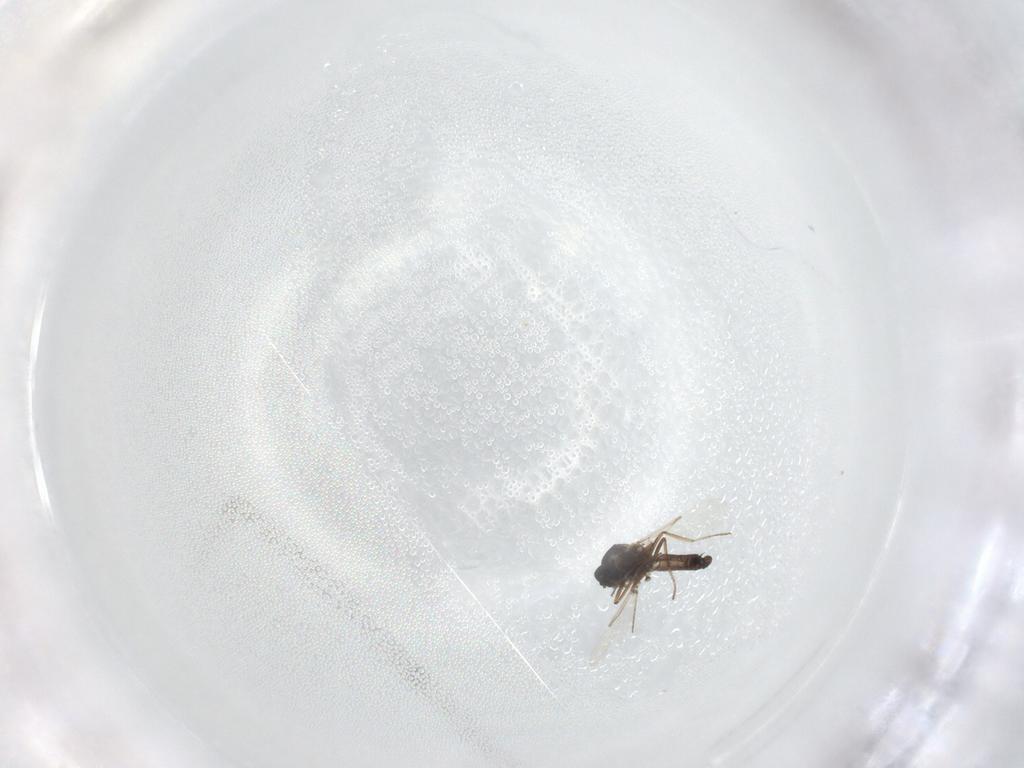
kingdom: Animalia
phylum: Arthropoda
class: Insecta
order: Diptera
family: Ceratopogonidae
